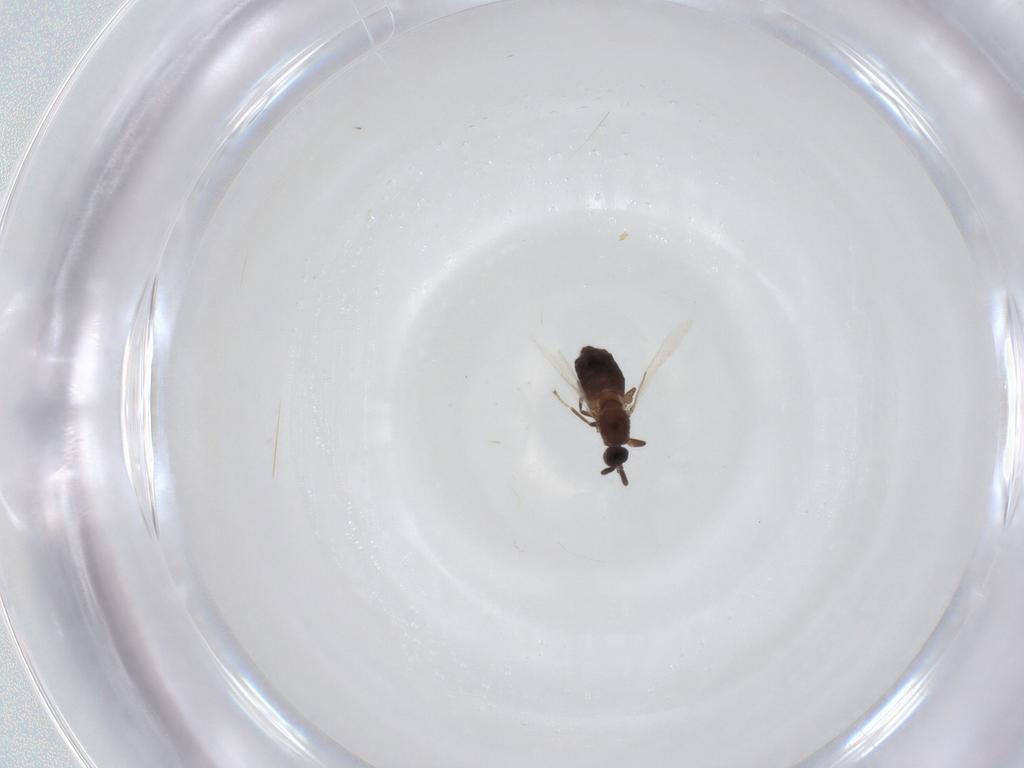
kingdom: Animalia
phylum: Arthropoda
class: Insecta
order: Diptera
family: Scatopsidae
